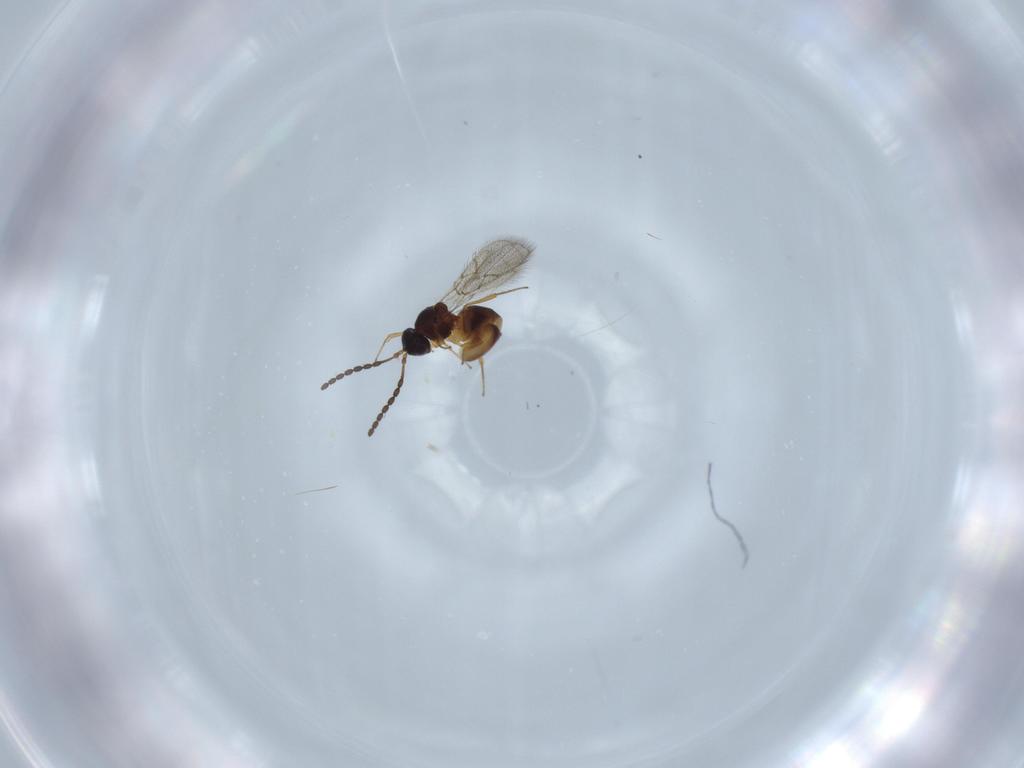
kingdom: Animalia
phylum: Arthropoda
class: Insecta
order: Hymenoptera
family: Figitidae
